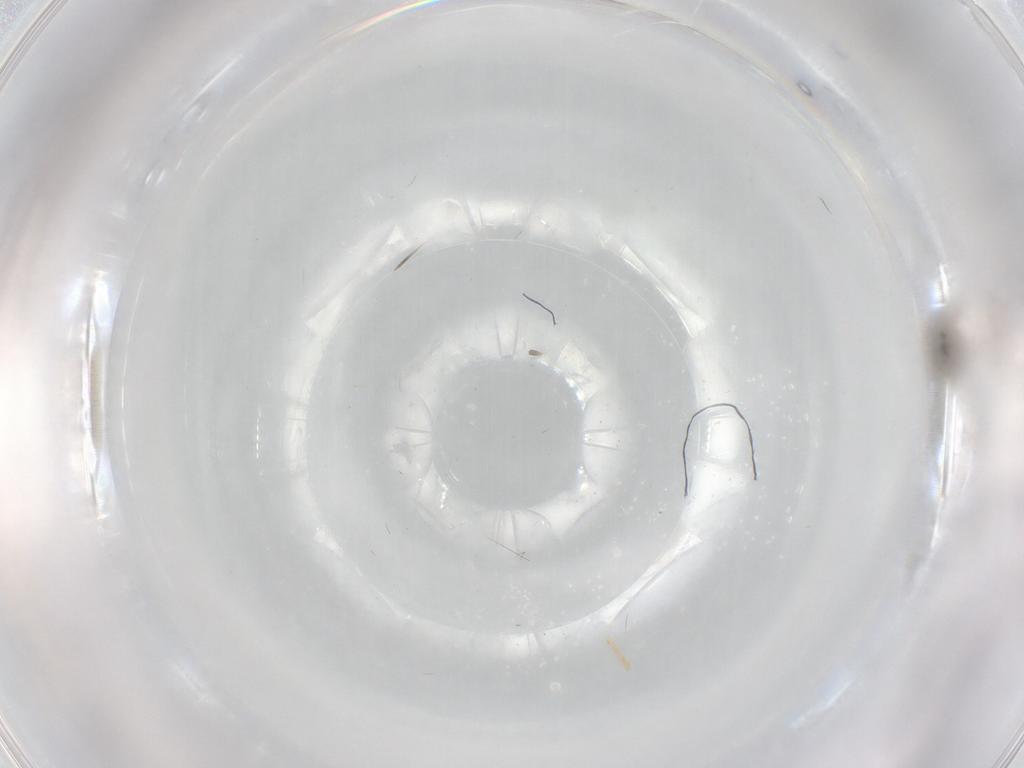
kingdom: Animalia
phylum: Arthropoda
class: Insecta
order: Diptera
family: Chironomidae
